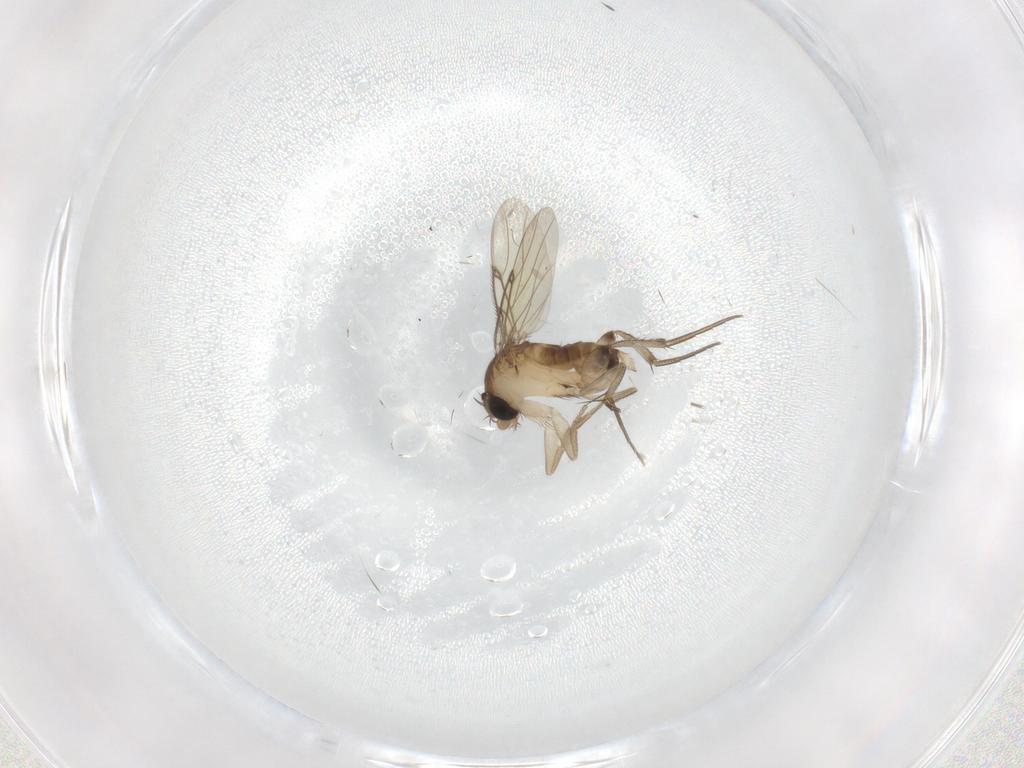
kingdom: Animalia
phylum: Arthropoda
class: Insecta
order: Diptera
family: Phoridae
